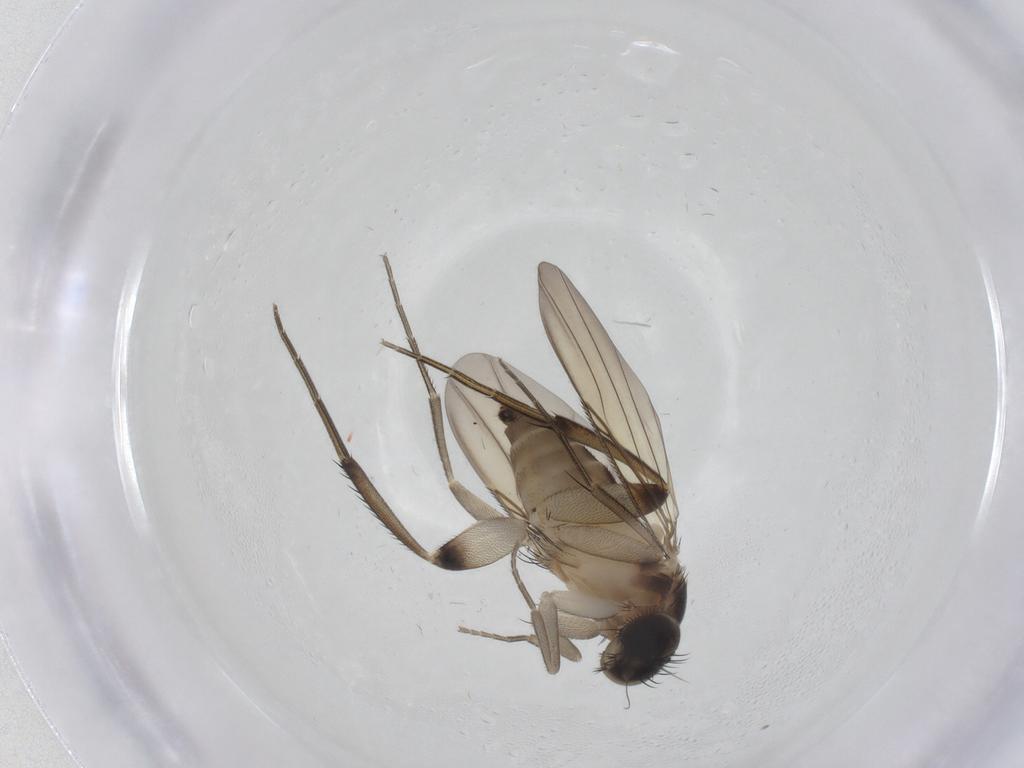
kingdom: Animalia
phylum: Arthropoda
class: Insecta
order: Diptera
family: Phoridae
